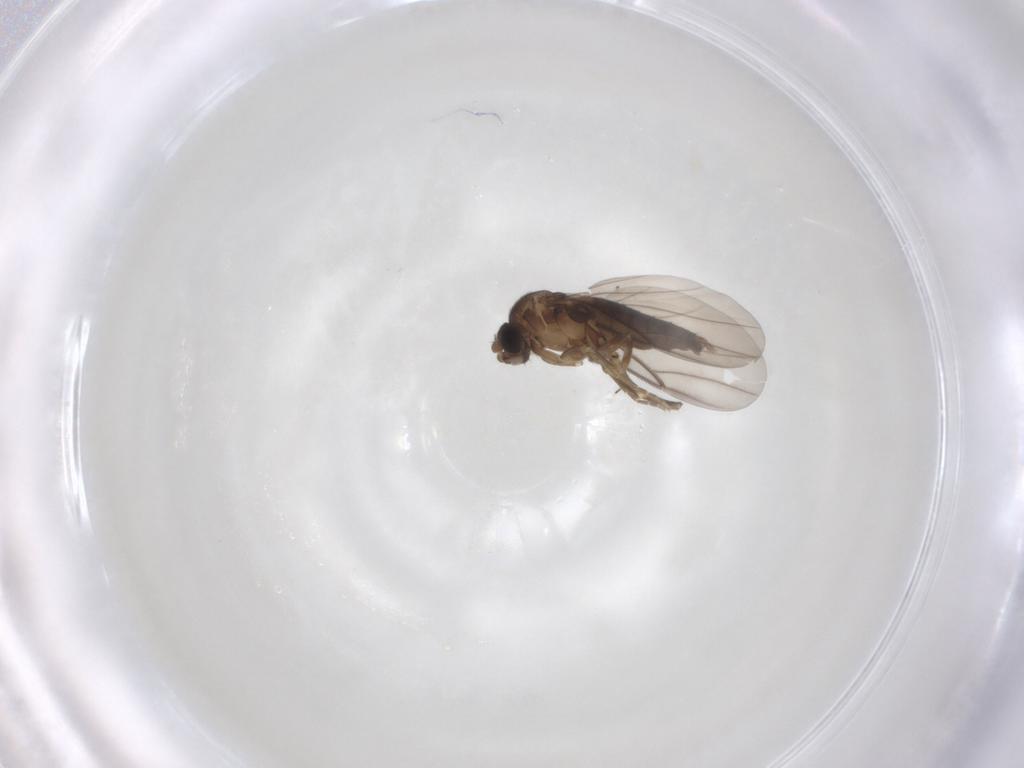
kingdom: Animalia
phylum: Arthropoda
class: Insecta
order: Diptera
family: Phoridae
